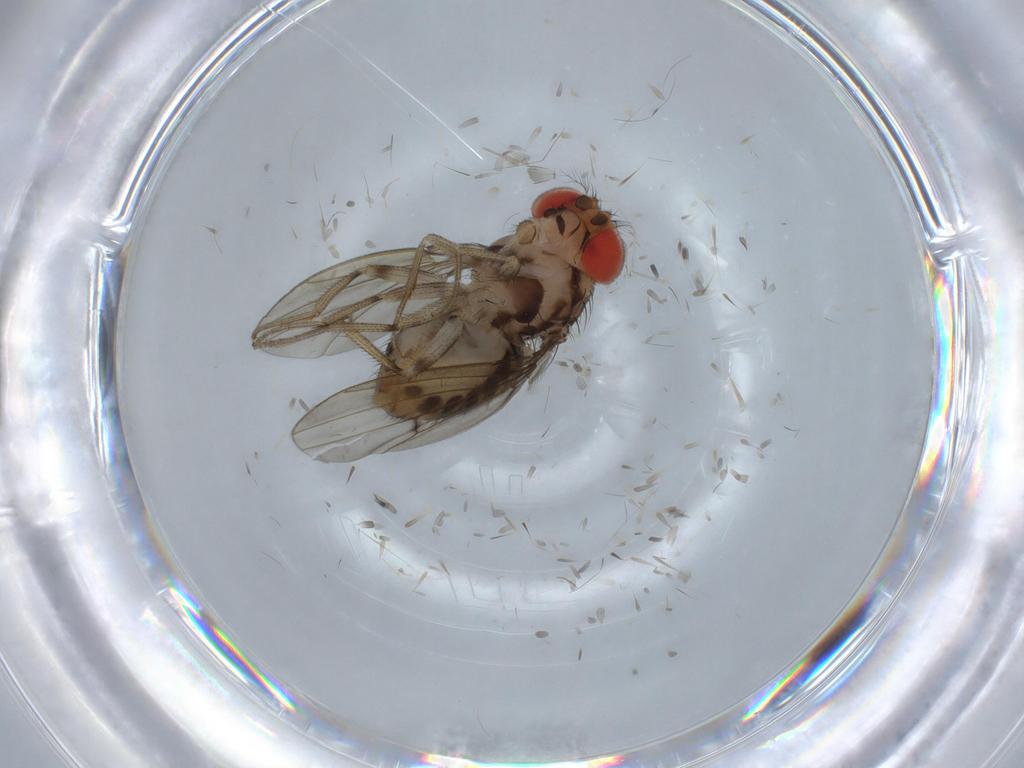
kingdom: Animalia
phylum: Arthropoda
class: Insecta
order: Diptera
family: Drosophilidae
